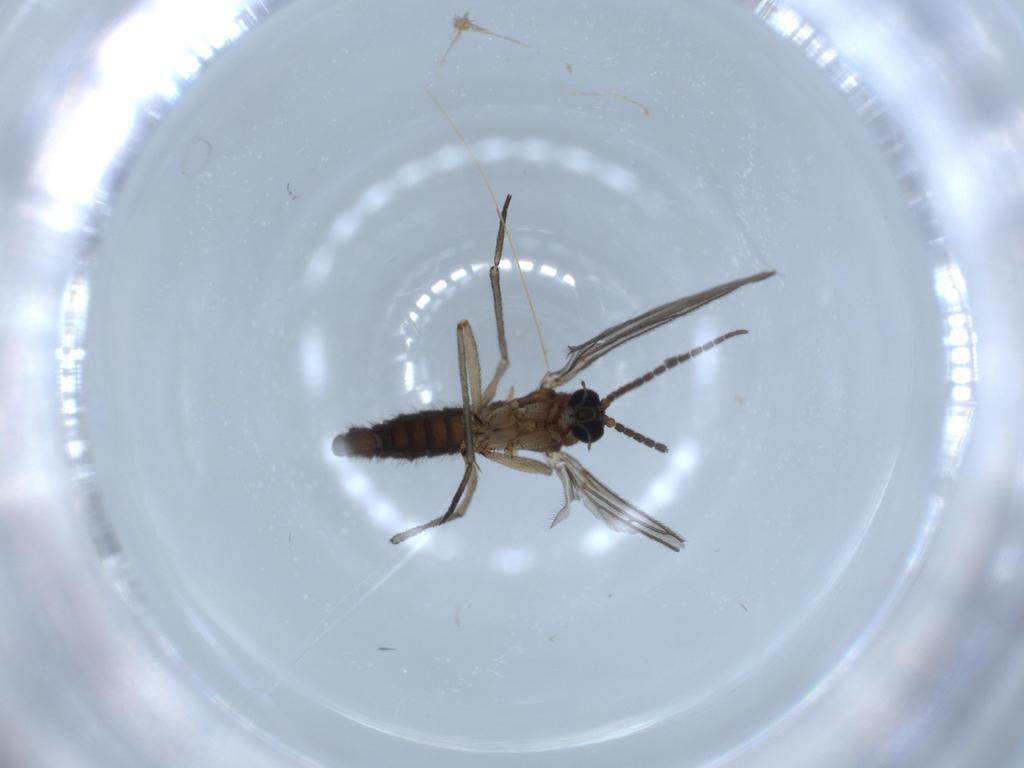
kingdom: Animalia
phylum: Arthropoda
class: Insecta
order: Diptera
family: Sciaridae
